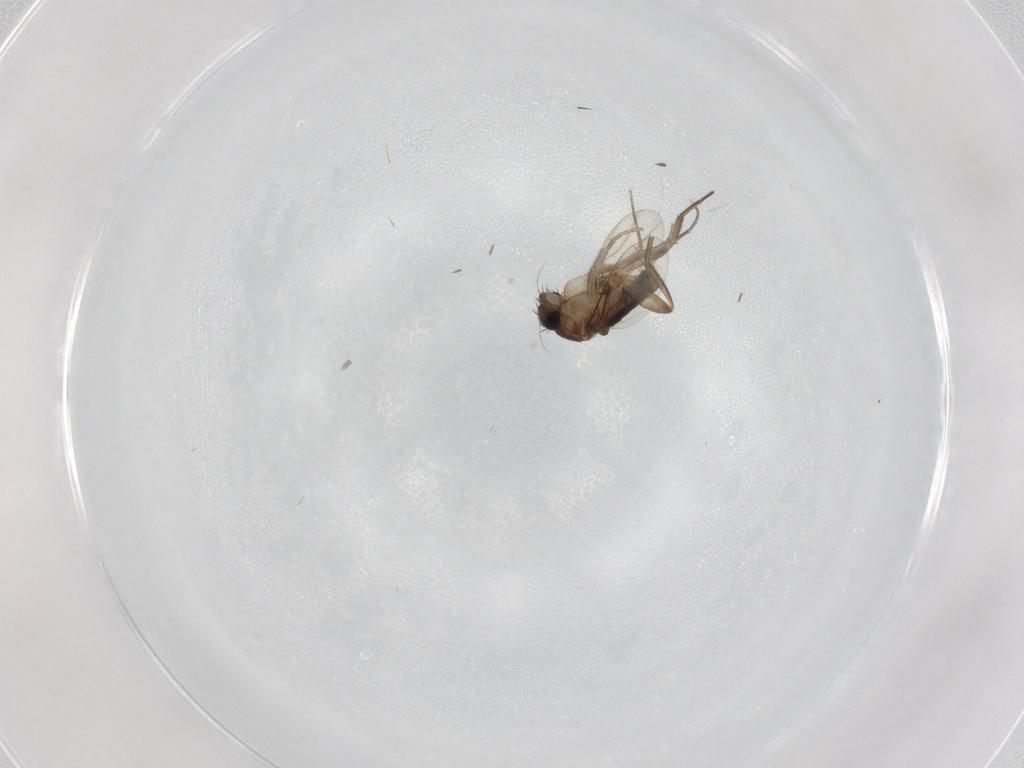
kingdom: Animalia
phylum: Arthropoda
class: Insecta
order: Diptera
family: Phoridae
